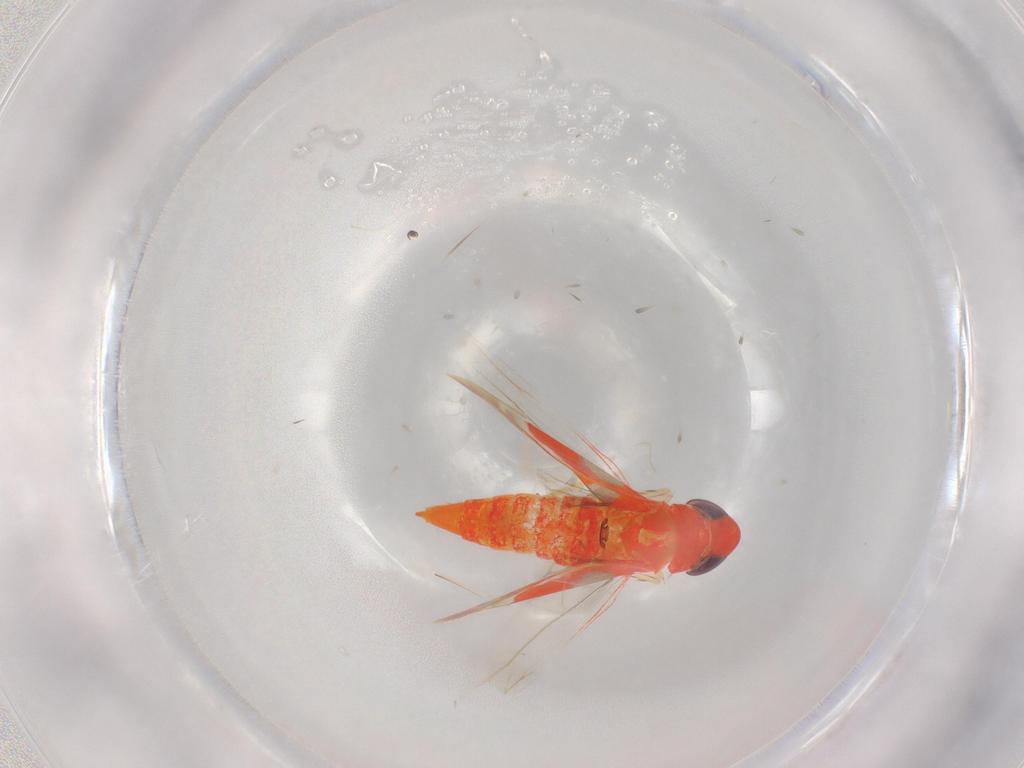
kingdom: Animalia
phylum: Arthropoda
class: Insecta
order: Hemiptera
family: Cicadellidae
